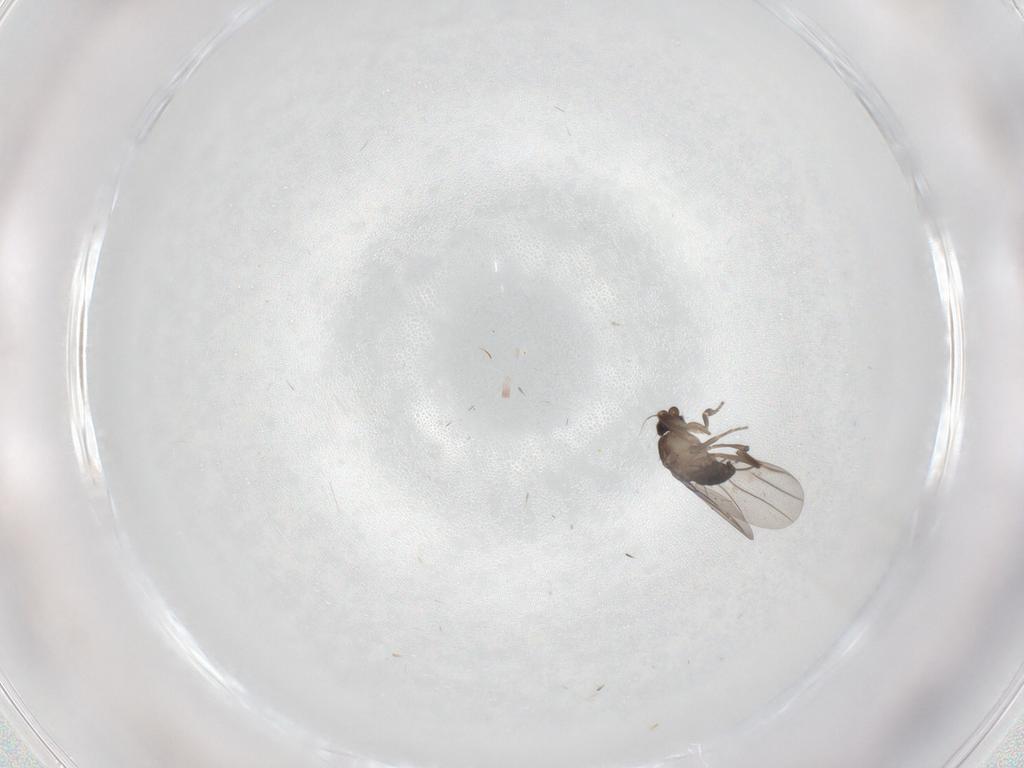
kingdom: Animalia
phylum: Arthropoda
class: Insecta
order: Diptera
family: Phoridae
